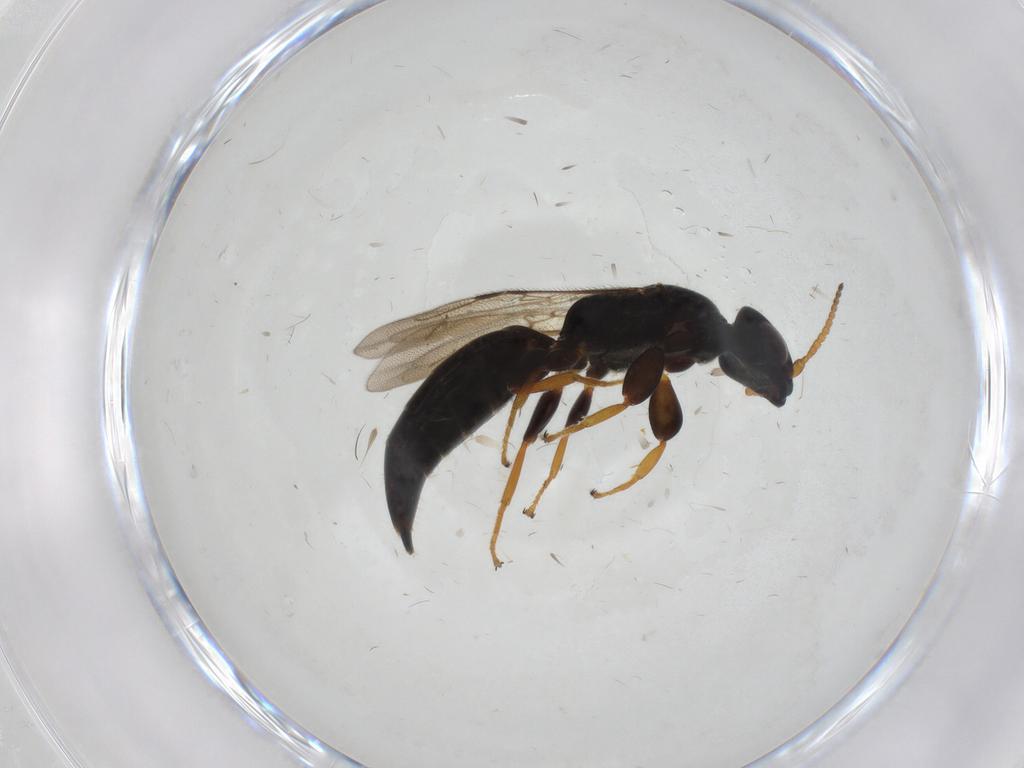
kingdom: Animalia
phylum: Arthropoda
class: Insecta
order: Hymenoptera
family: Bethylidae
